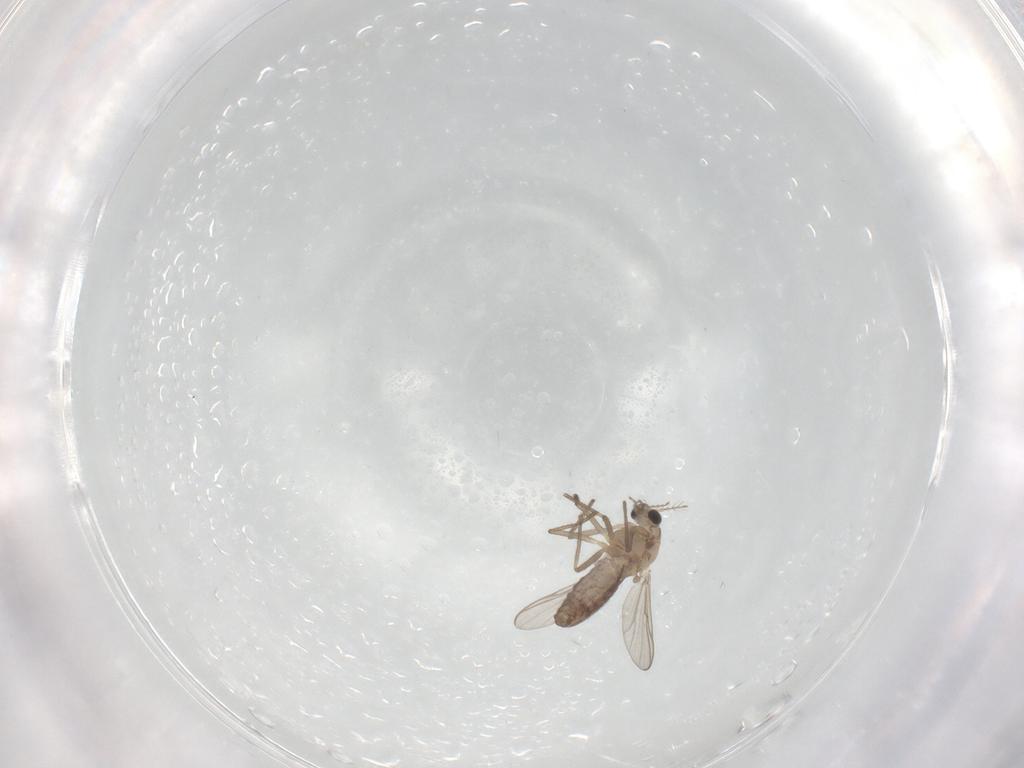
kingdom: Animalia
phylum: Arthropoda
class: Insecta
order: Diptera
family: Chironomidae
